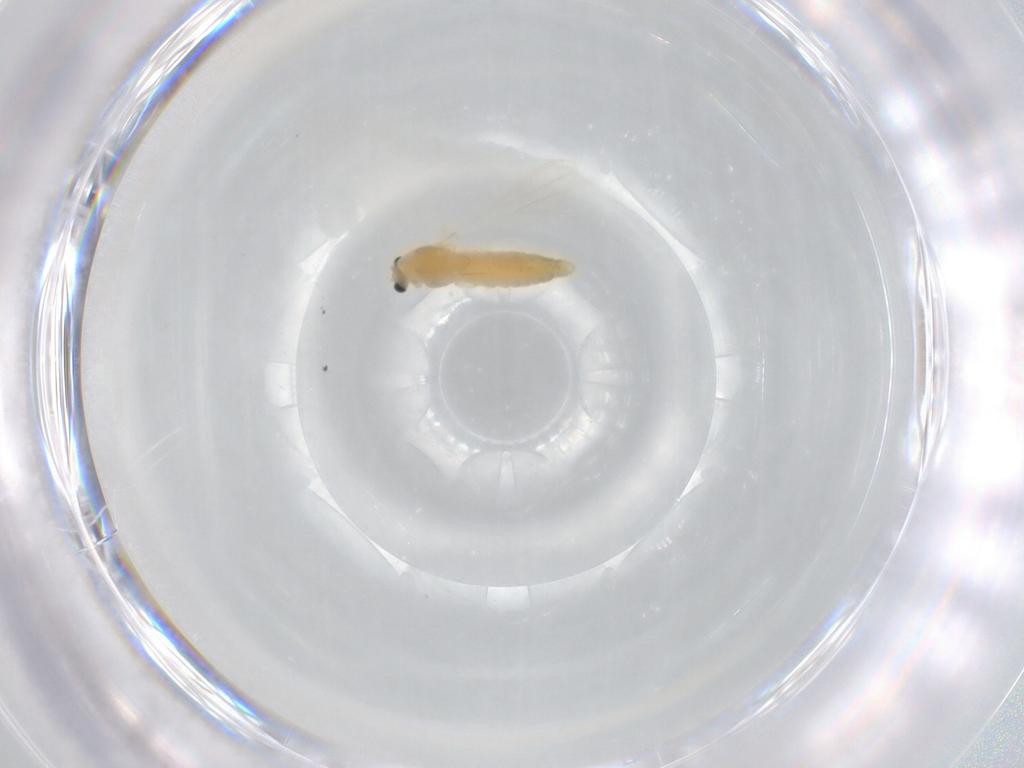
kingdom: Animalia
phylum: Arthropoda
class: Insecta
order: Diptera
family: Chironomidae
